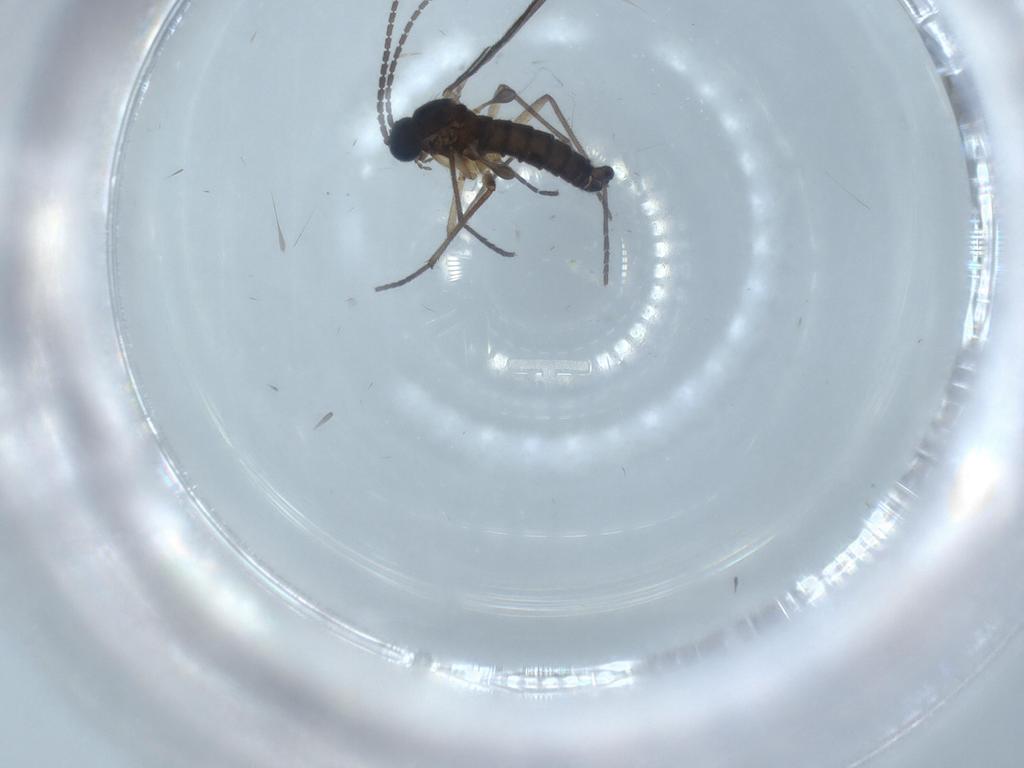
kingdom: Animalia
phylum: Arthropoda
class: Insecta
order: Diptera
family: Sciaridae
